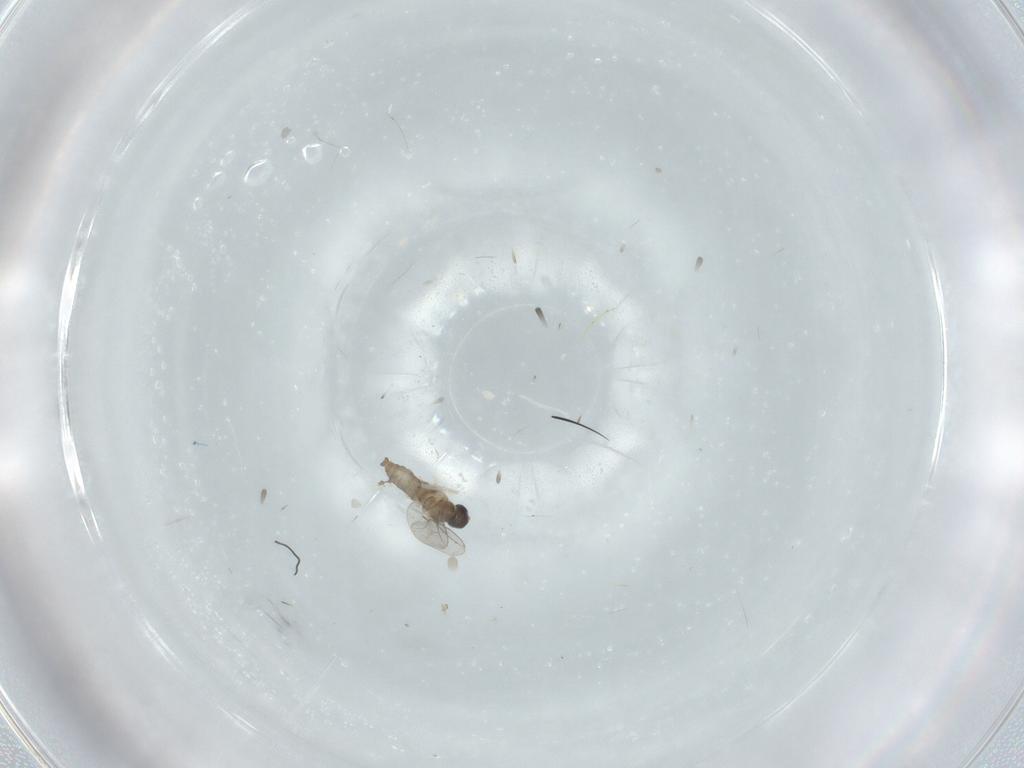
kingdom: Animalia
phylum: Arthropoda
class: Insecta
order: Diptera
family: Cecidomyiidae
